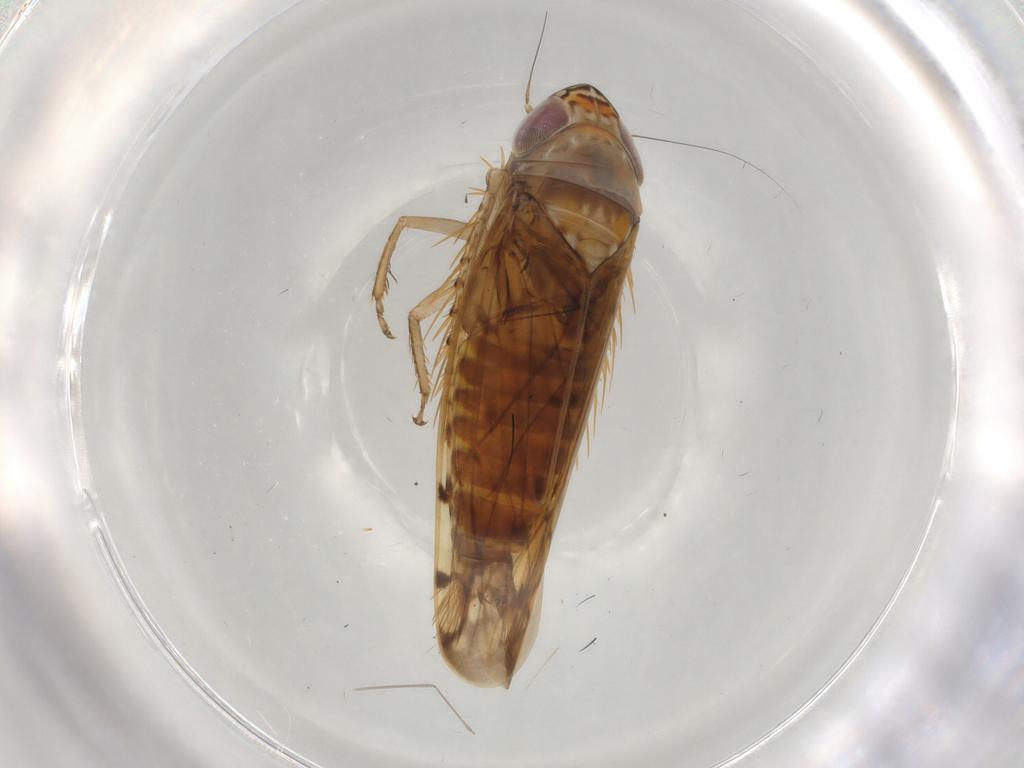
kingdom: Animalia
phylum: Arthropoda
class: Insecta
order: Hemiptera
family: Cicadellidae
